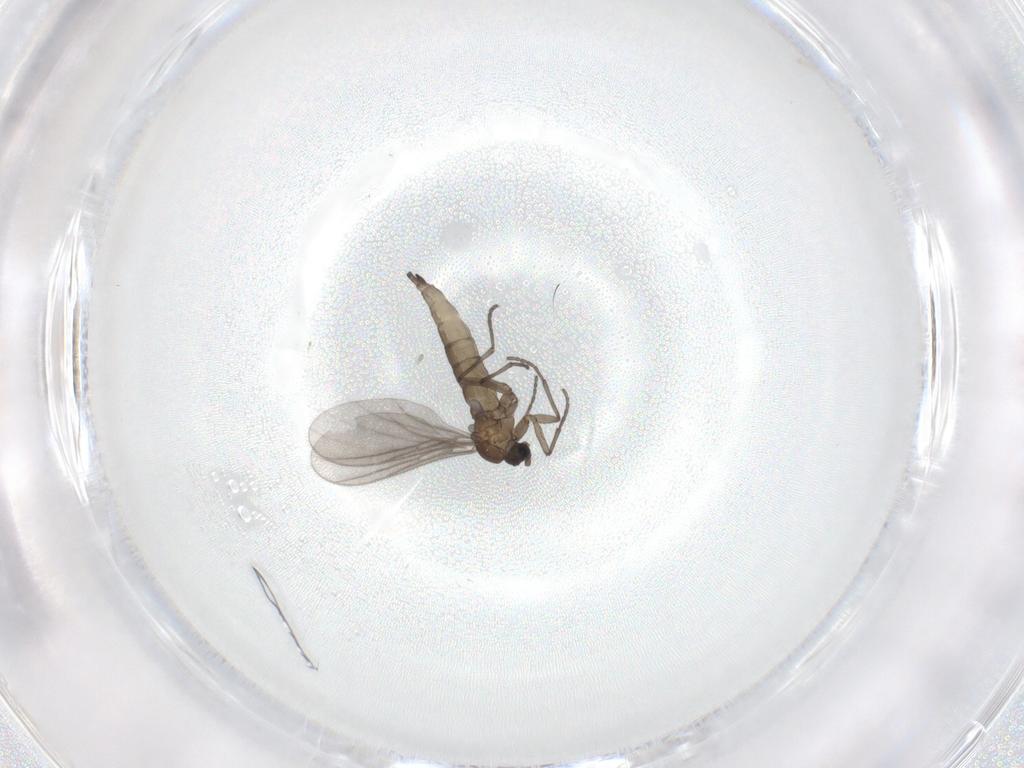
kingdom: Animalia
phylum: Arthropoda
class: Insecta
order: Diptera
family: Sciaridae
